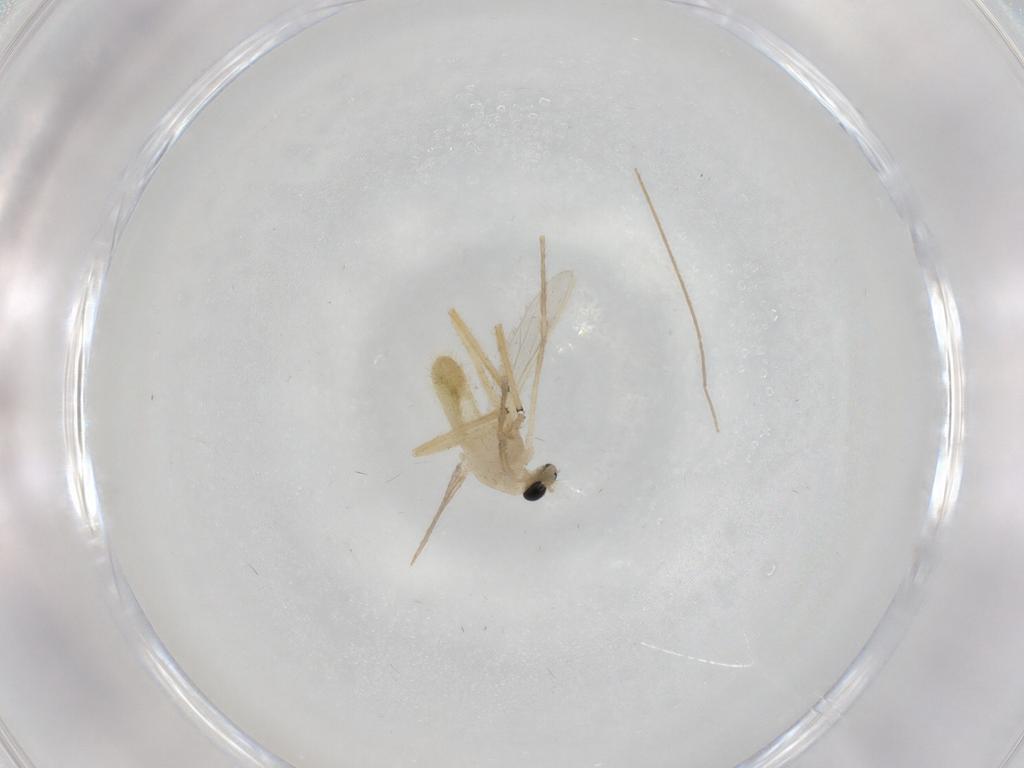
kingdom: Animalia
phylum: Arthropoda
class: Insecta
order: Diptera
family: Chironomidae
